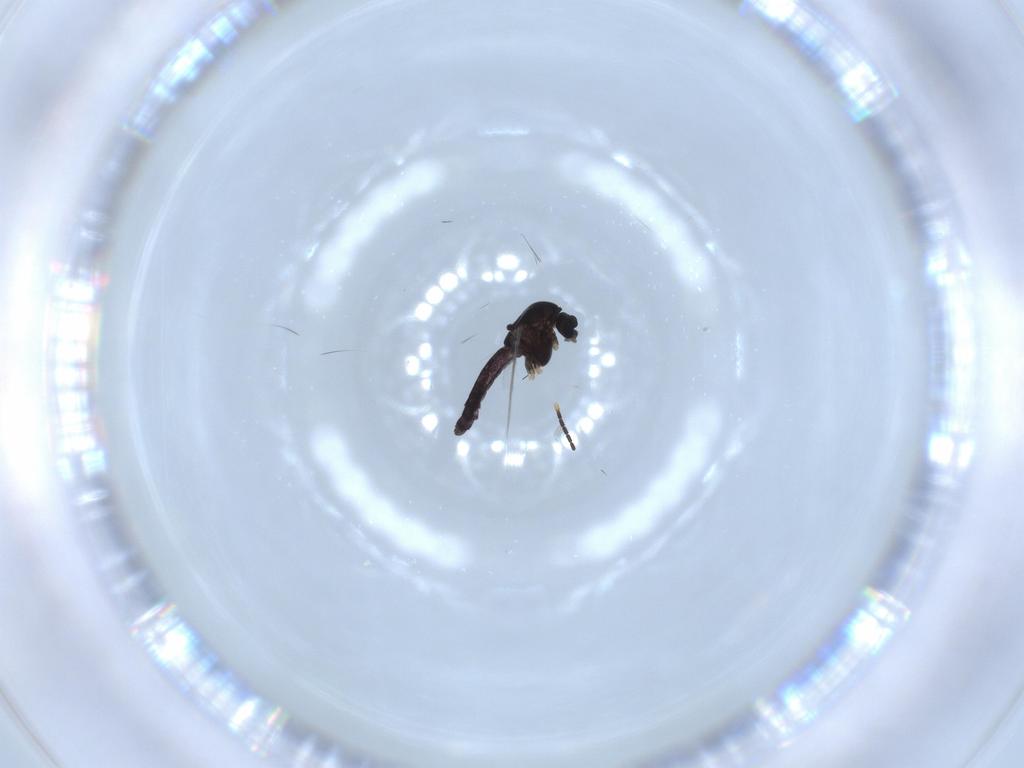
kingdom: Animalia
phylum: Arthropoda
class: Insecta
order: Diptera
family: Chironomidae
